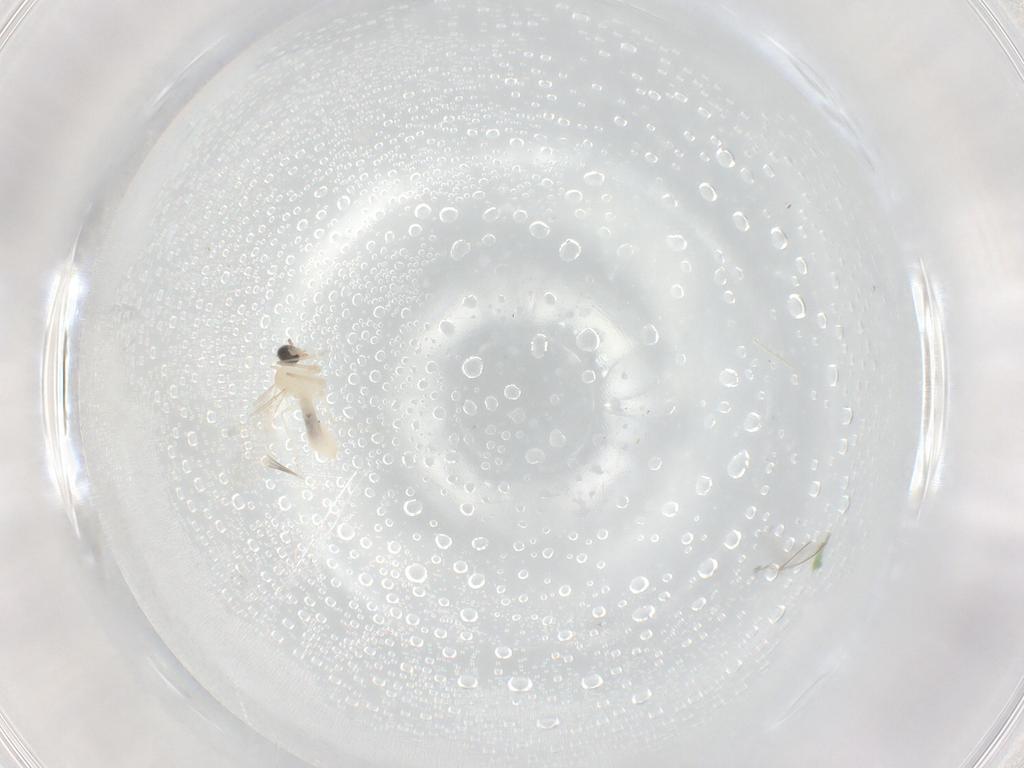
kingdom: Animalia
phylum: Arthropoda
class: Insecta
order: Diptera
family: Cecidomyiidae
